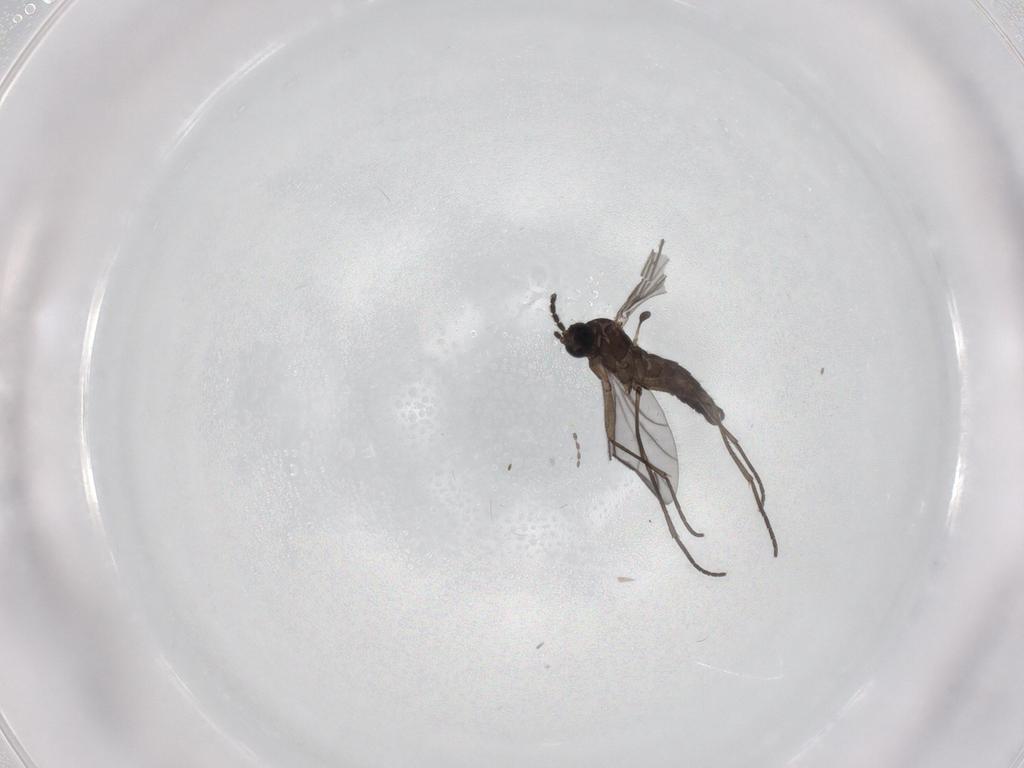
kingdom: Animalia
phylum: Arthropoda
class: Insecta
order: Diptera
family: Sciaridae
